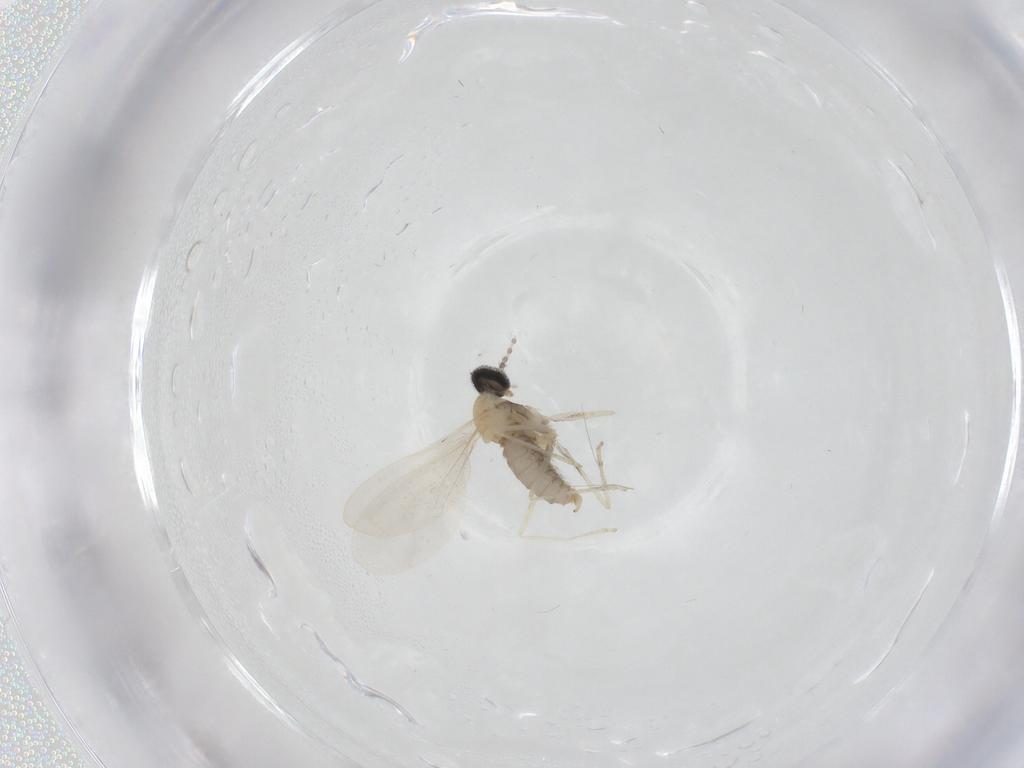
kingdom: Animalia
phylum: Arthropoda
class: Insecta
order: Diptera
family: Cecidomyiidae
